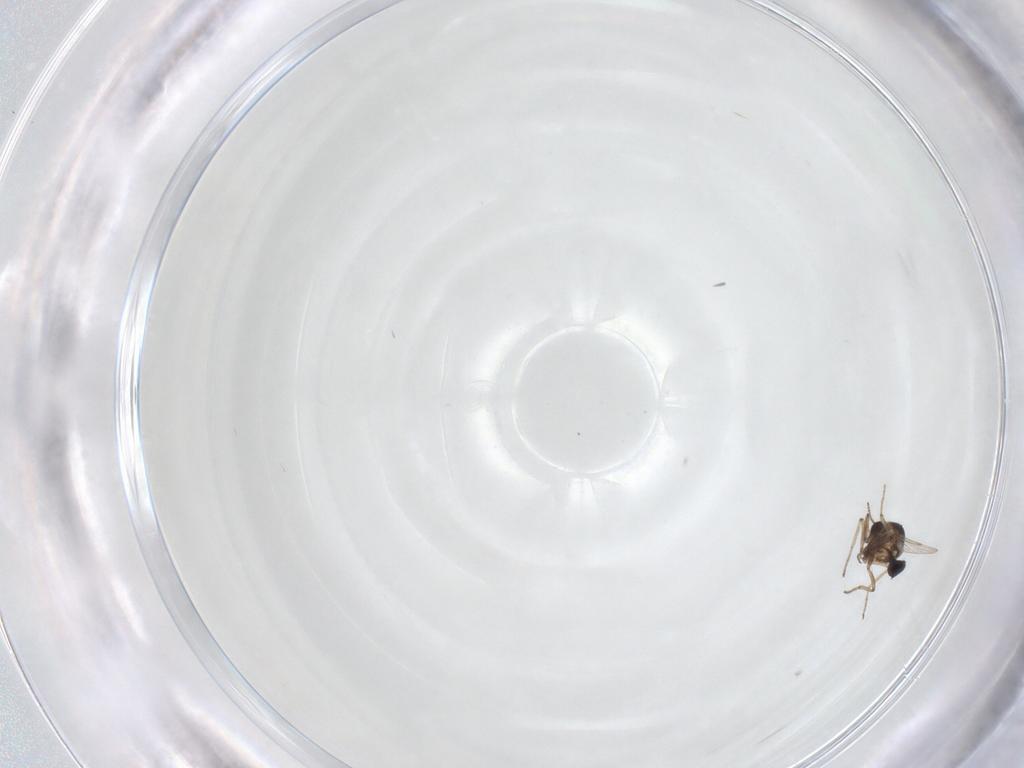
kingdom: Animalia
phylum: Arthropoda
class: Insecta
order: Diptera
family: Ceratopogonidae
